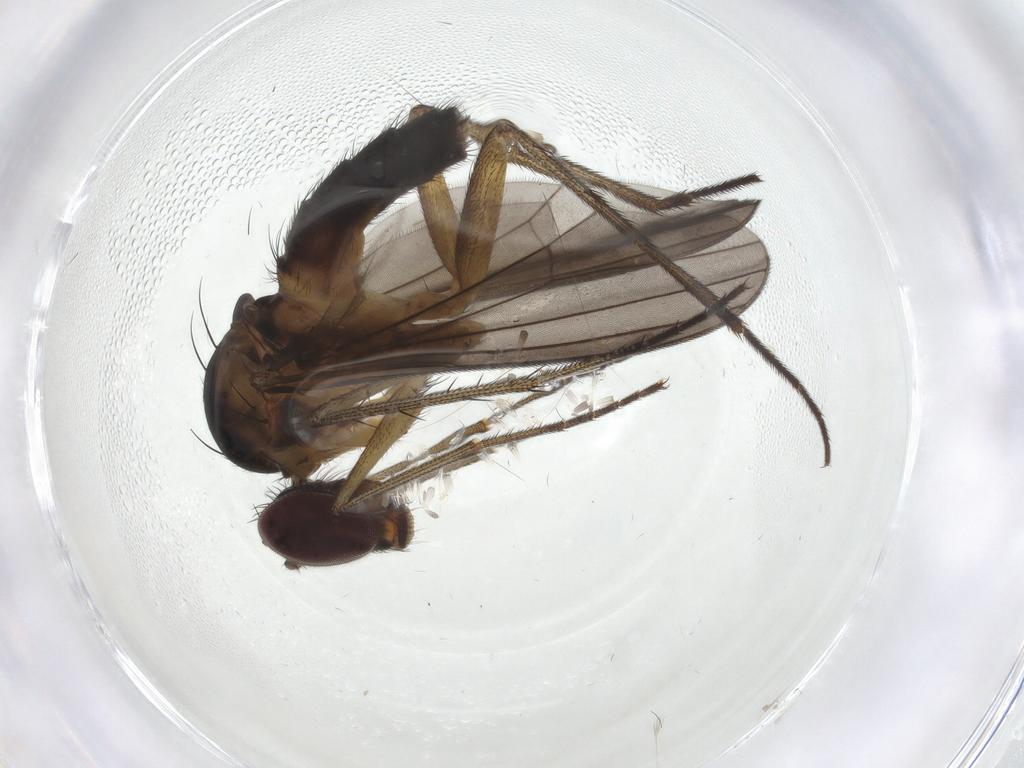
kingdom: Animalia
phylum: Arthropoda
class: Insecta
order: Diptera
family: Dolichopodidae
